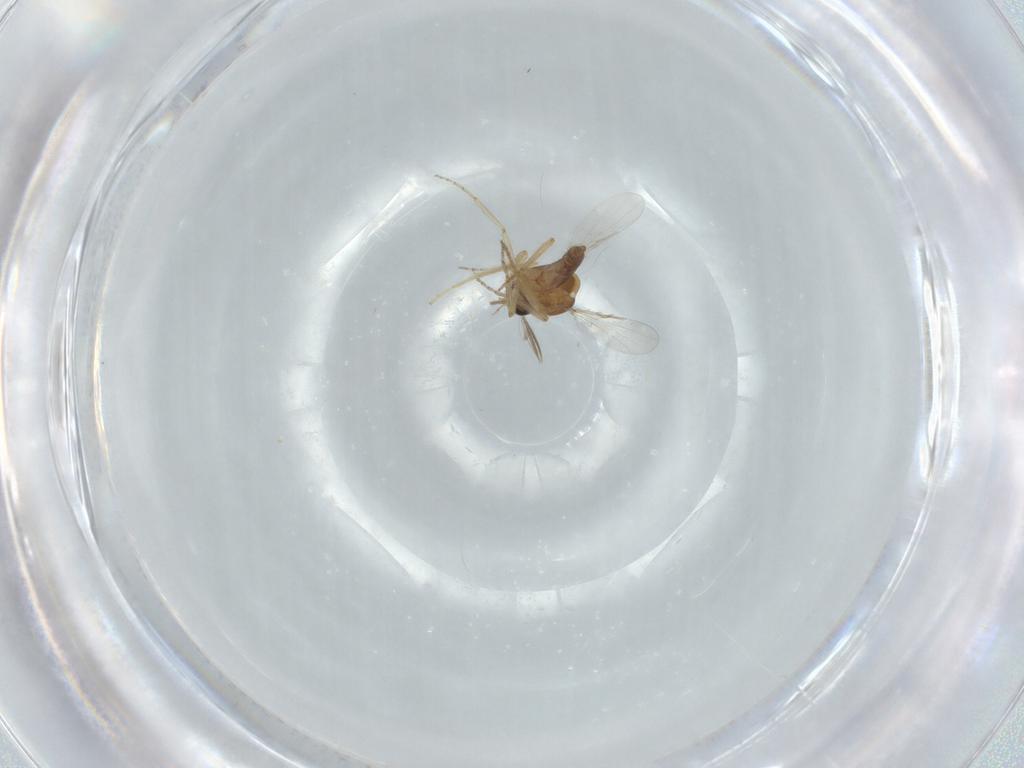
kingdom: Animalia
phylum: Arthropoda
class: Insecta
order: Diptera
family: Ceratopogonidae
